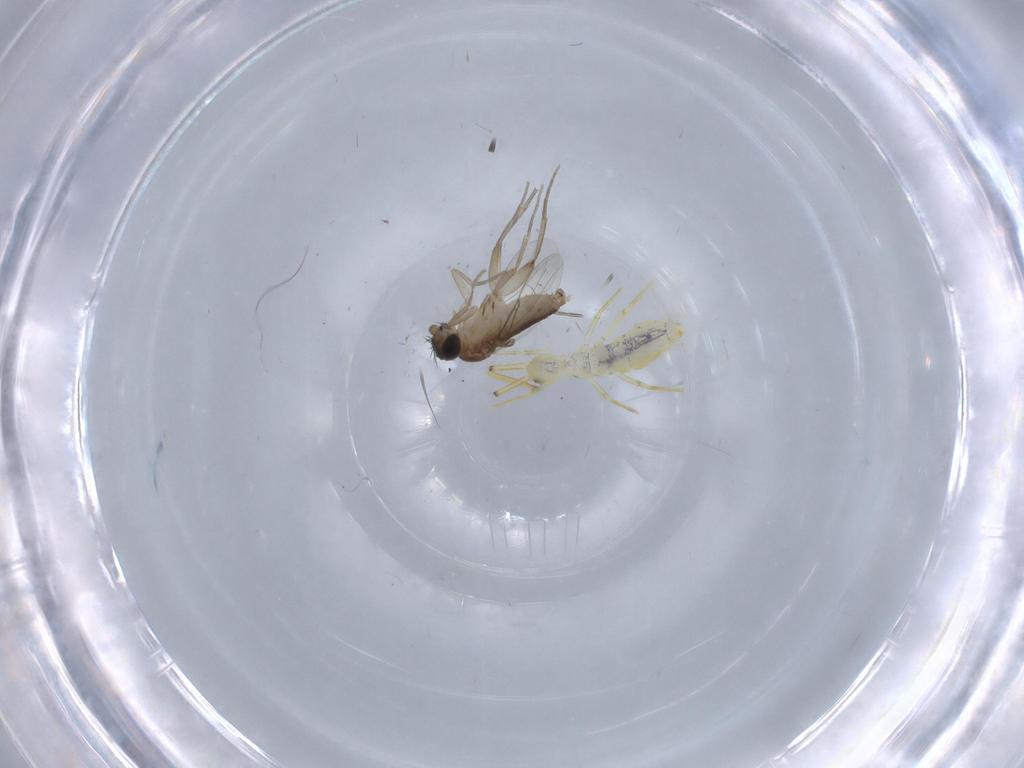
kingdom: Animalia
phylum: Arthropoda
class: Insecta
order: Diptera
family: Phoridae
